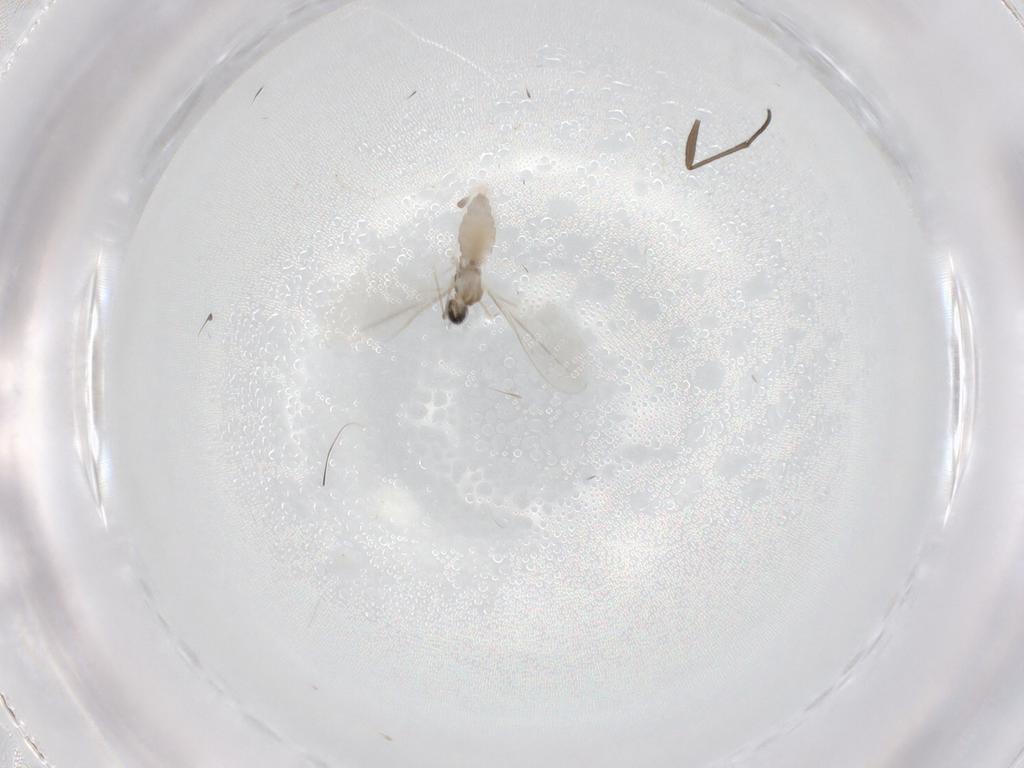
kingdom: Animalia
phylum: Arthropoda
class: Insecta
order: Diptera
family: Sciaridae
